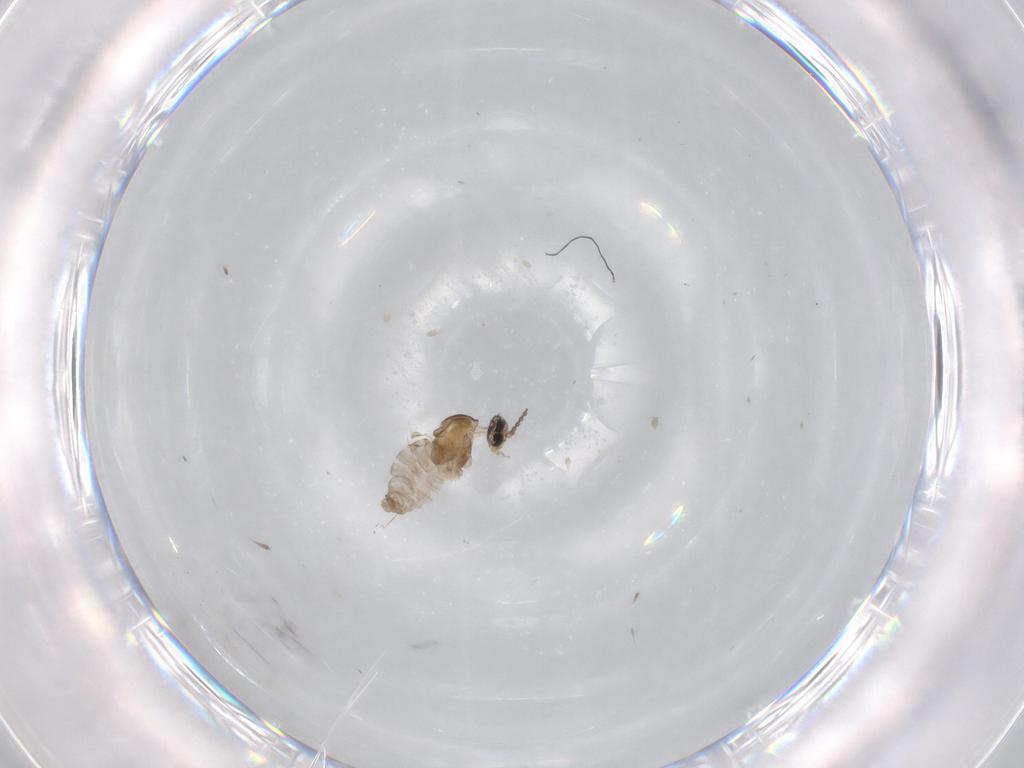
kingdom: Animalia
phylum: Arthropoda
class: Insecta
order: Diptera
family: Cecidomyiidae
